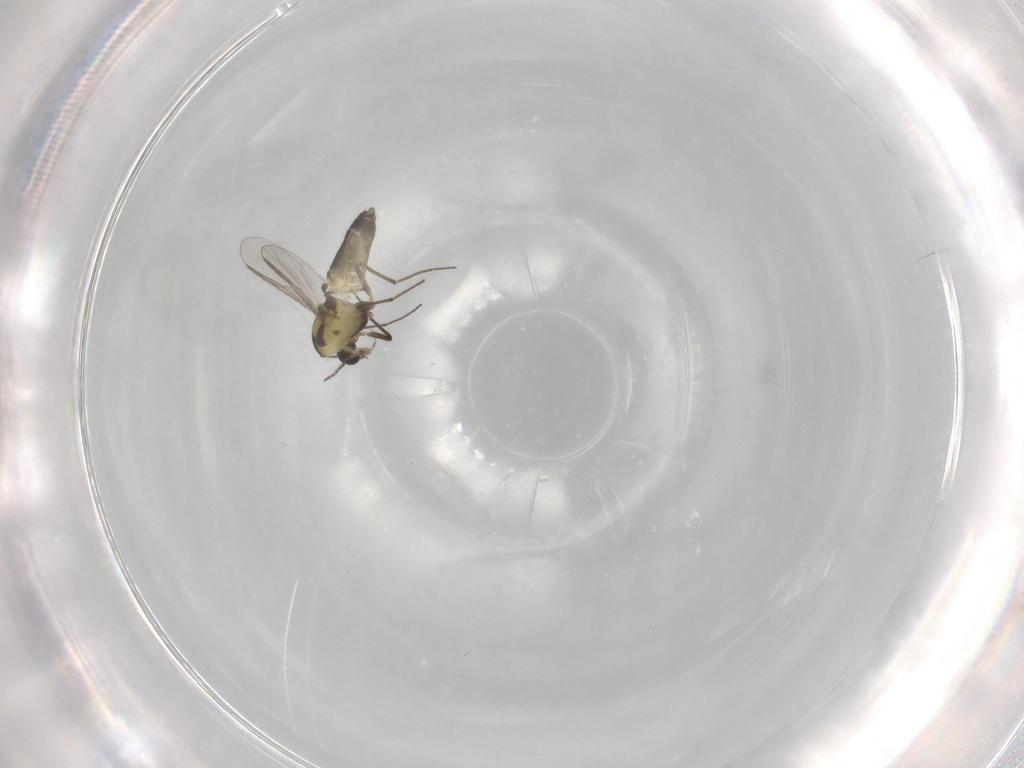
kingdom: Animalia
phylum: Arthropoda
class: Insecta
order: Diptera
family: Chironomidae
